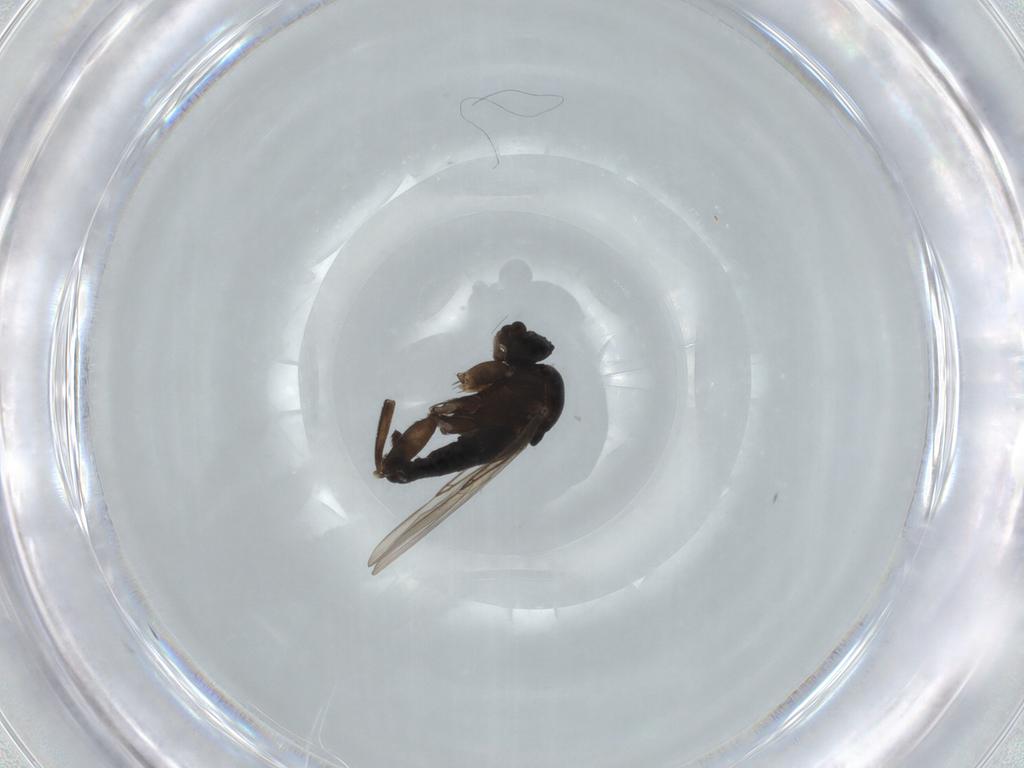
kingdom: Animalia
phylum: Arthropoda
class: Insecta
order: Diptera
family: Phoridae
